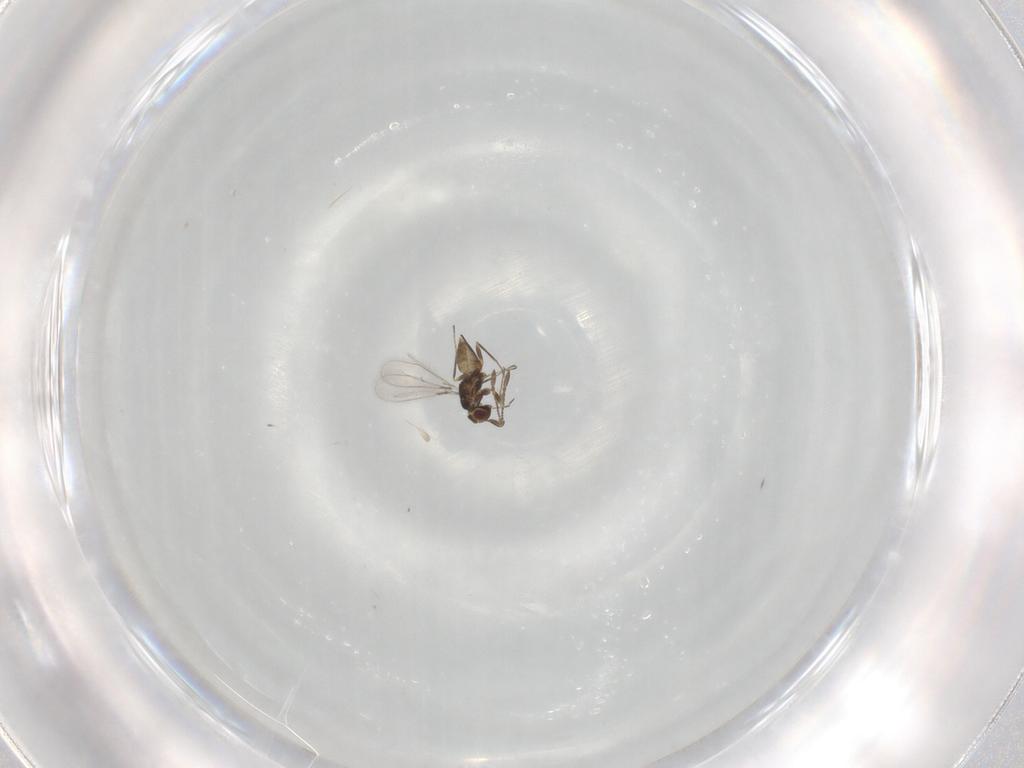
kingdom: Animalia
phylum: Arthropoda
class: Insecta
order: Hymenoptera
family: Mymaridae
